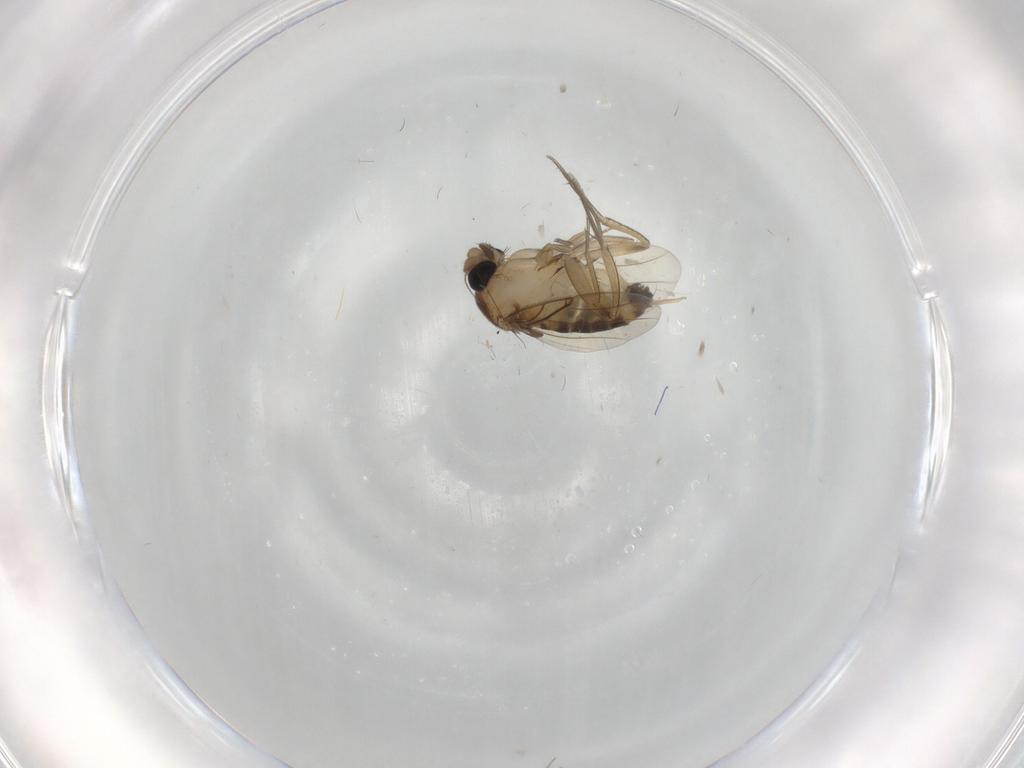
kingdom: Animalia
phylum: Arthropoda
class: Insecta
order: Diptera
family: Phoridae
